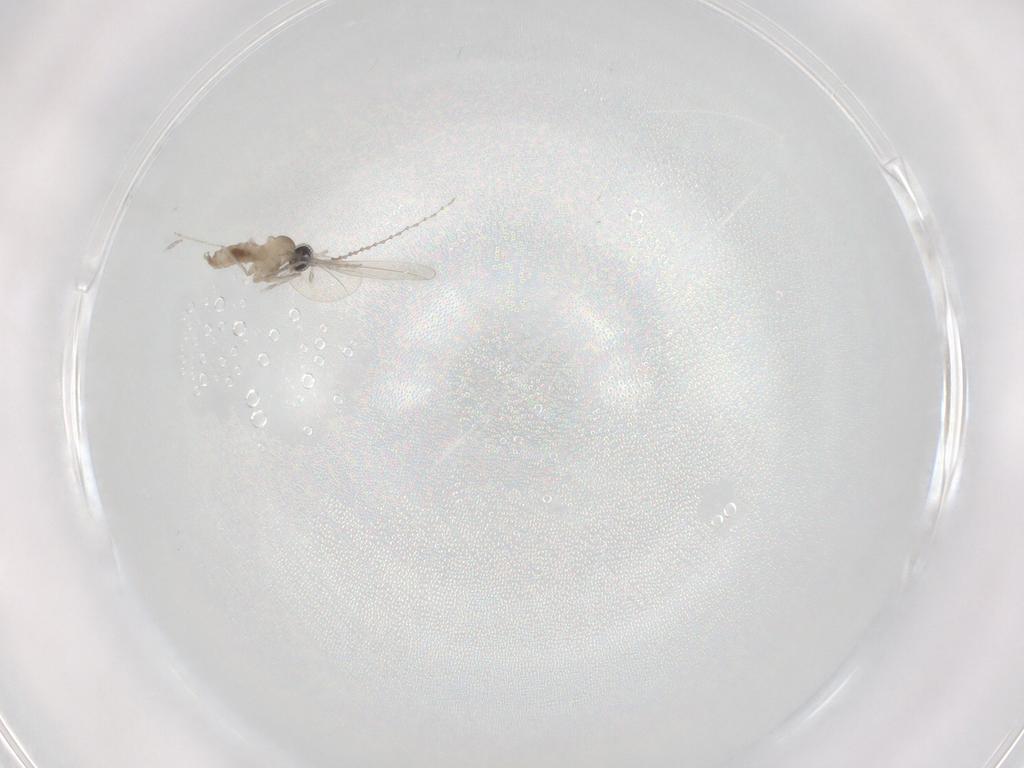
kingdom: Animalia
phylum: Arthropoda
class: Insecta
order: Diptera
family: Cecidomyiidae
